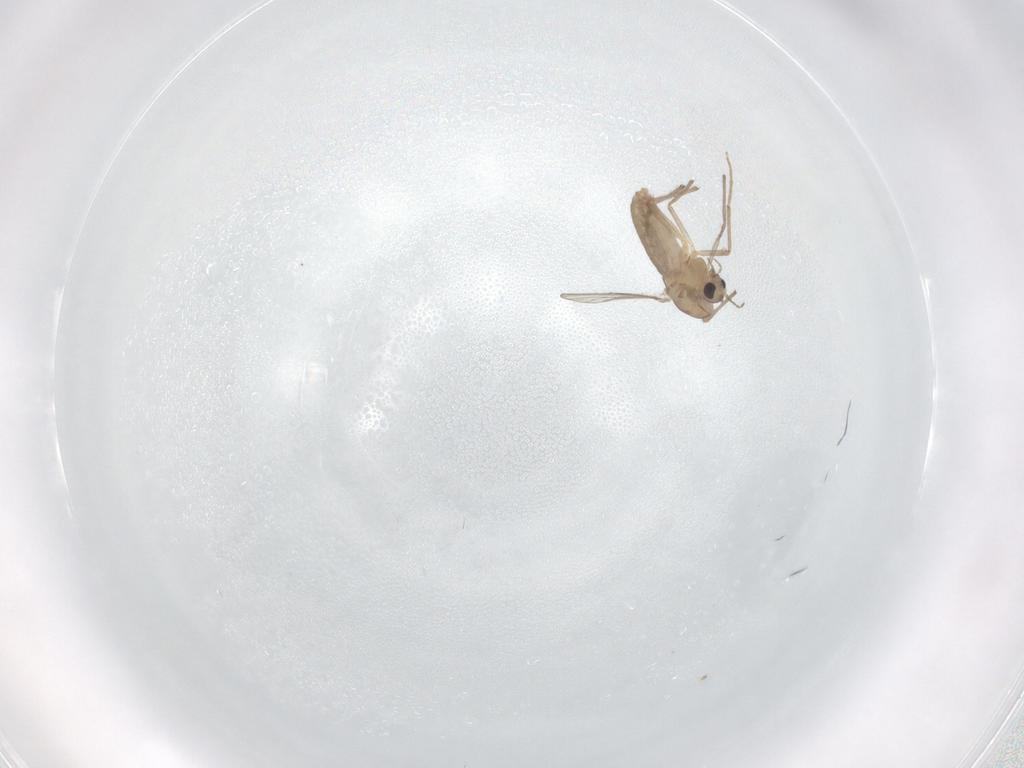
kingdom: Animalia
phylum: Arthropoda
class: Insecta
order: Diptera
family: Chironomidae
